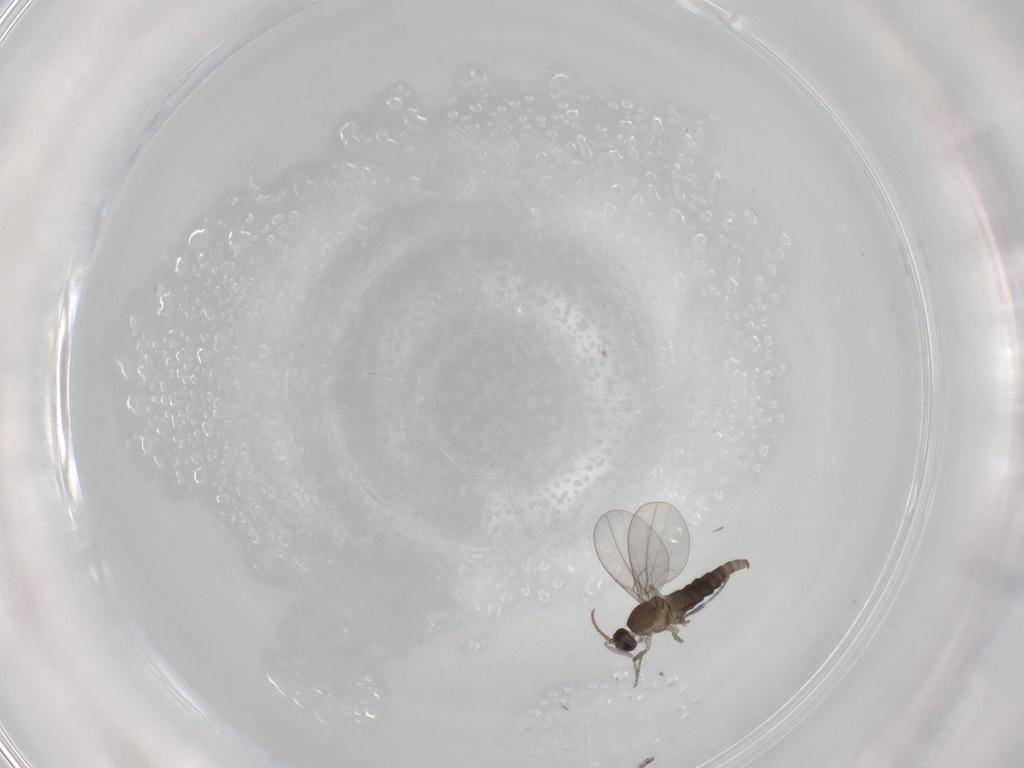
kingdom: Animalia
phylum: Arthropoda
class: Insecta
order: Diptera
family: Cecidomyiidae
